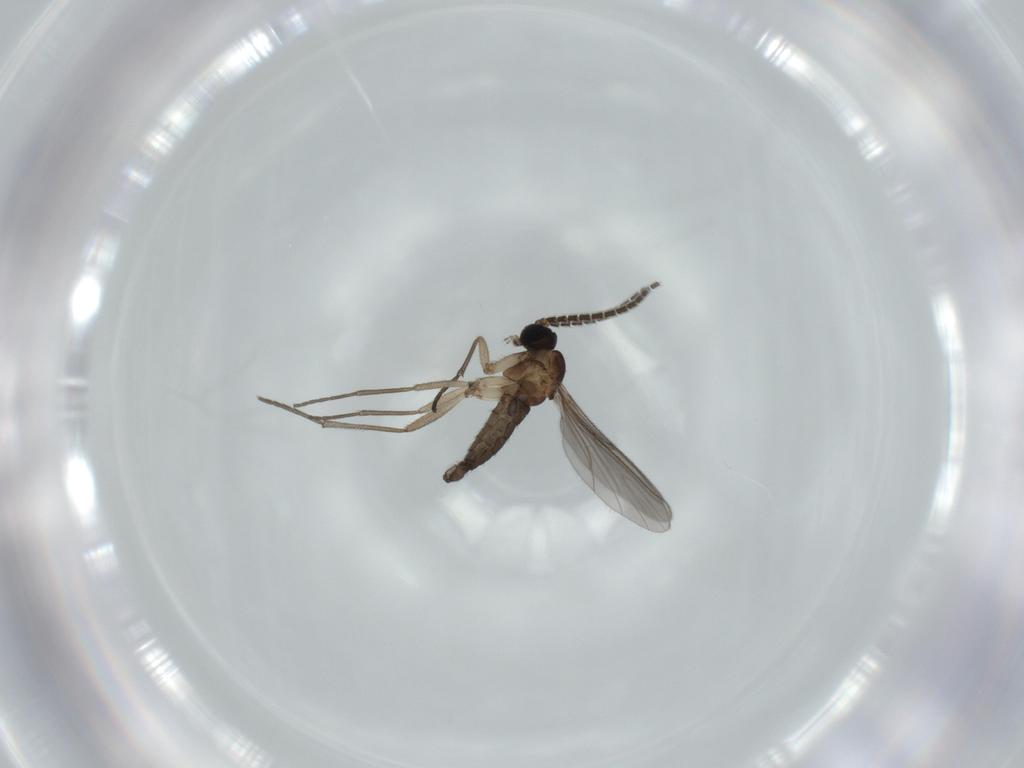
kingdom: Animalia
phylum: Arthropoda
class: Insecta
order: Diptera
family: Sciaridae
